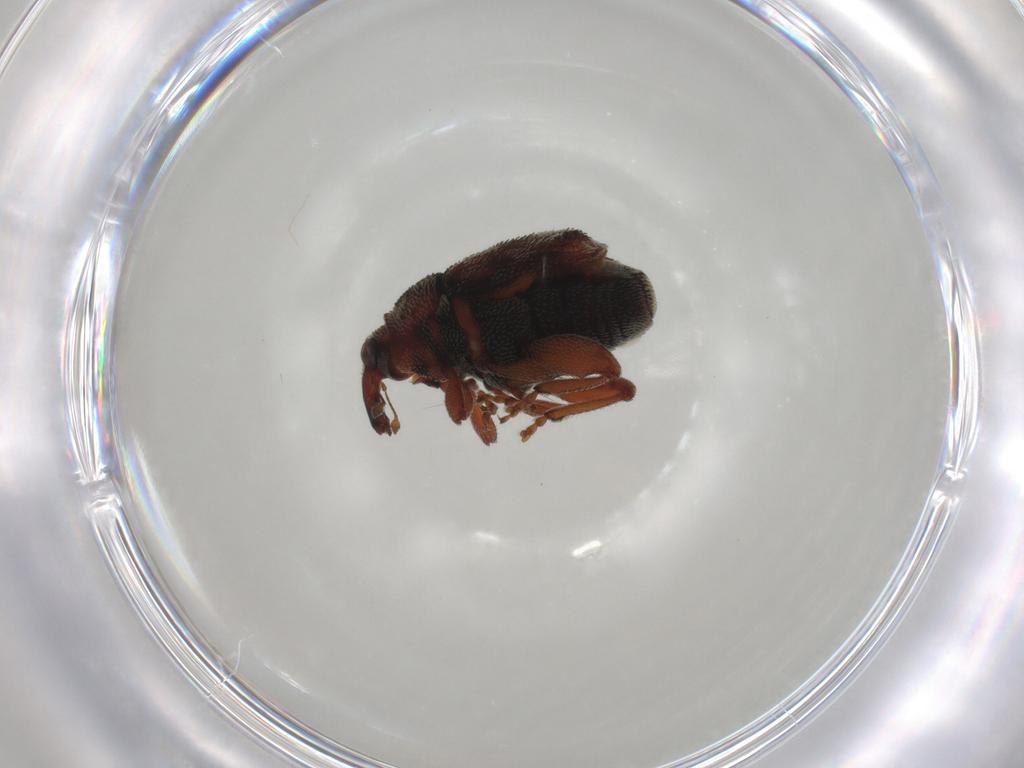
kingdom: Animalia
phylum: Arthropoda
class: Insecta
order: Coleoptera
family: Curculionidae
